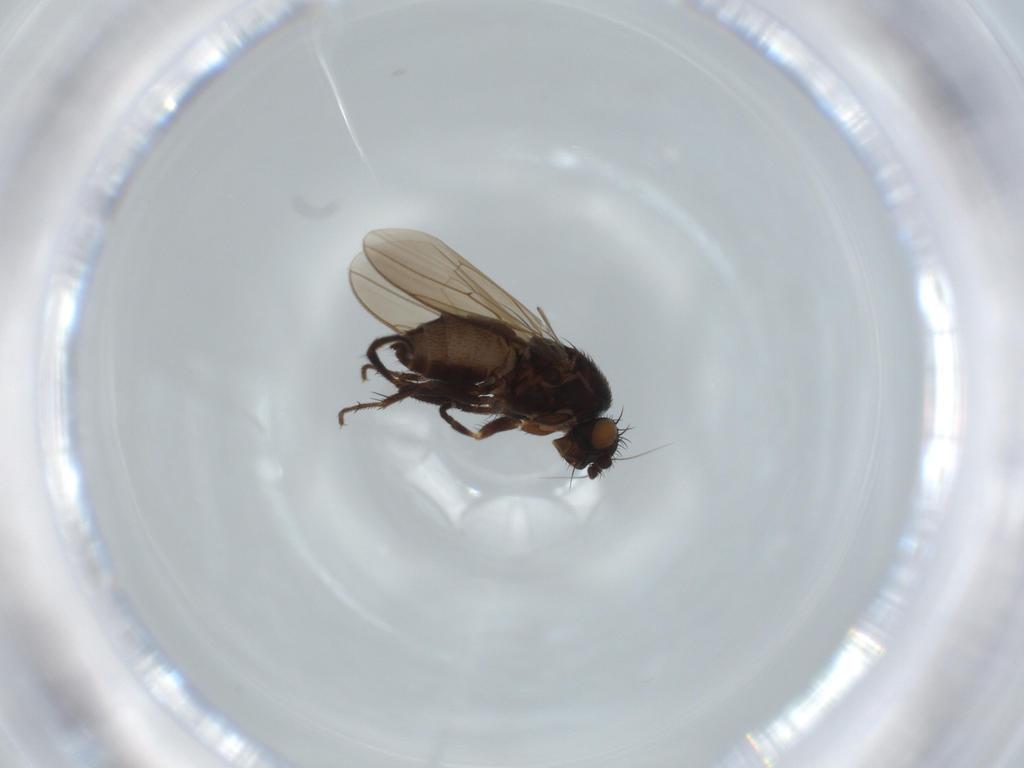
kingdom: Animalia
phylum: Arthropoda
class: Insecta
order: Diptera
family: Sphaeroceridae
